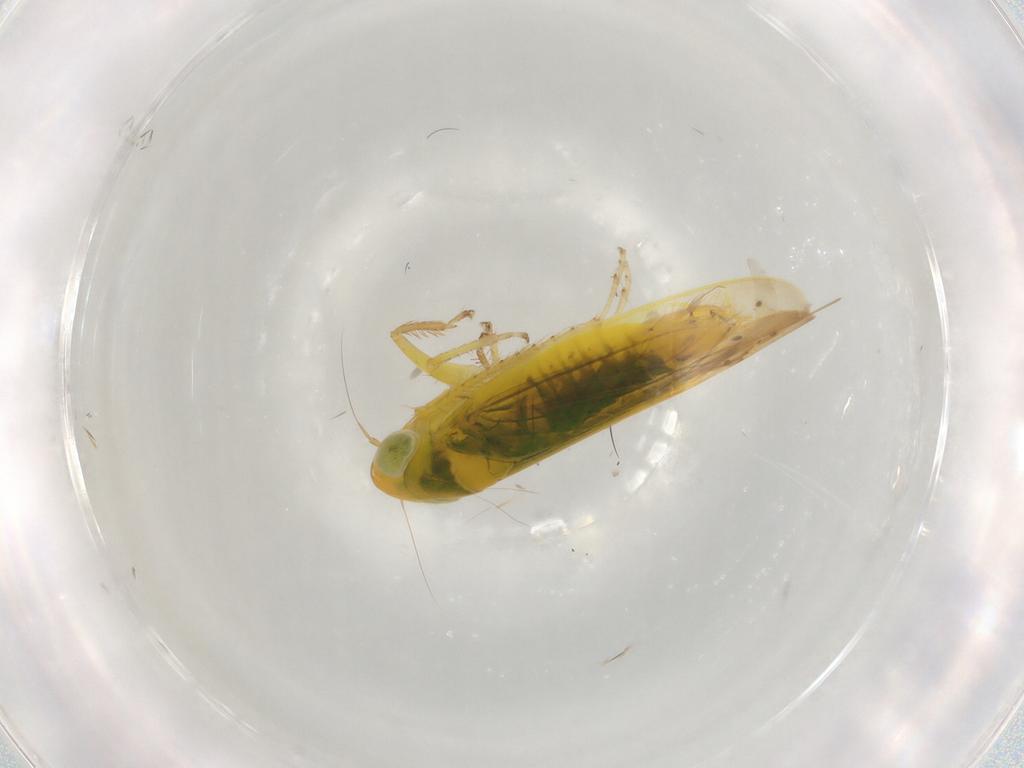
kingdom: Animalia
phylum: Arthropoda
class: Insecta
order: Hemiptera
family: Cicadellidae
